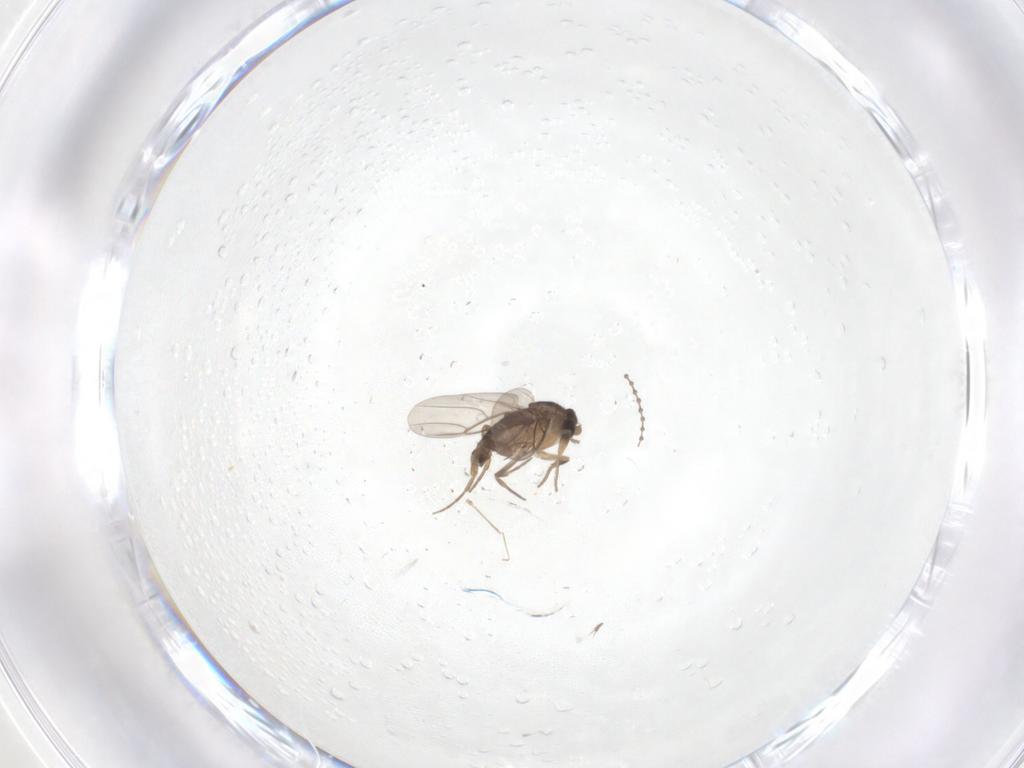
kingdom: Animalia
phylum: Arthropoda
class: Insecta
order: Diptera
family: Phoridae
